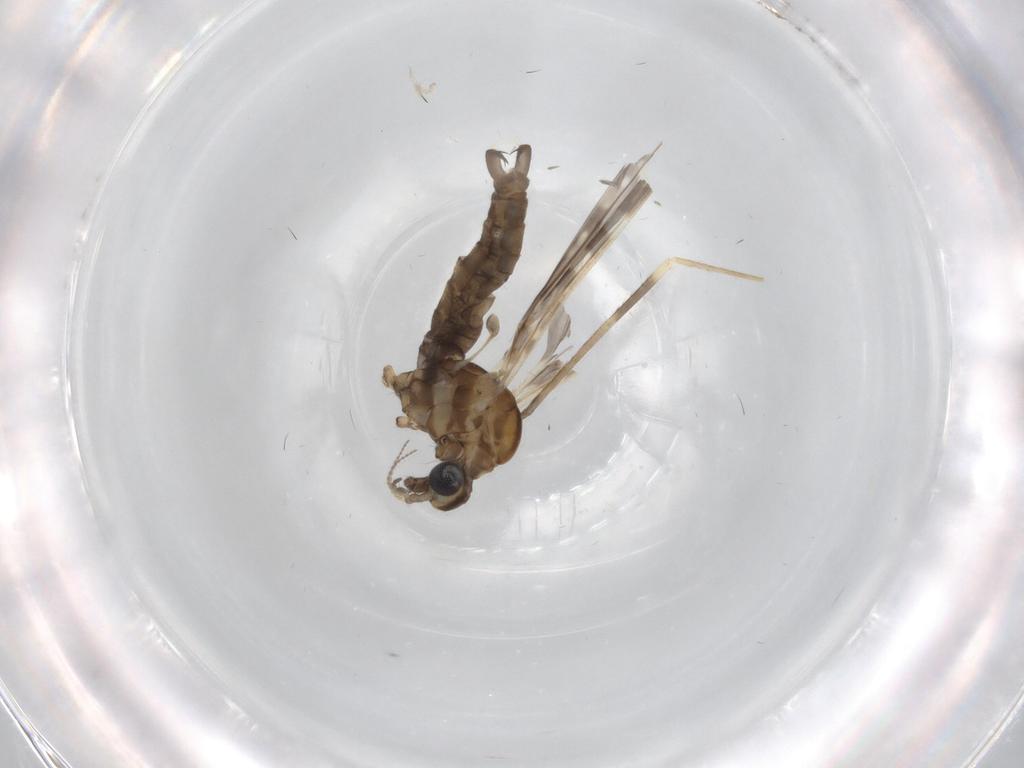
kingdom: Animalia
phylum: Arthropoda
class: Insecta
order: Diptera
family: Limoniidae
